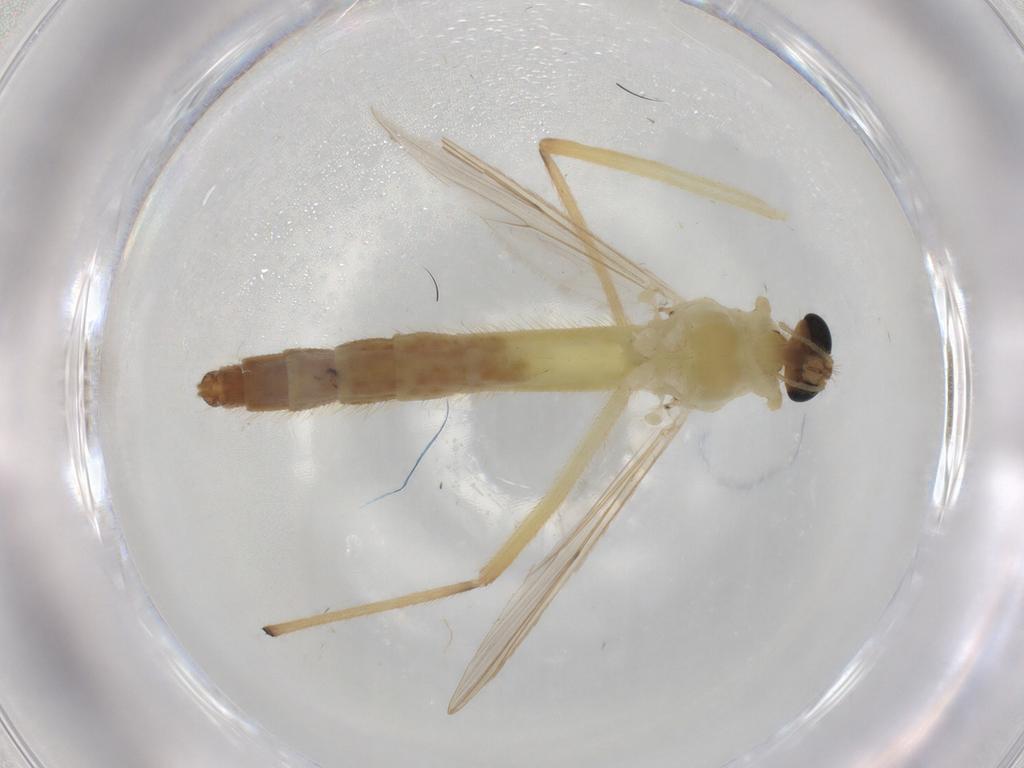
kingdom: Animalia
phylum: Arthropoda
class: Insecta
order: Diptera
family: Chironomidae
